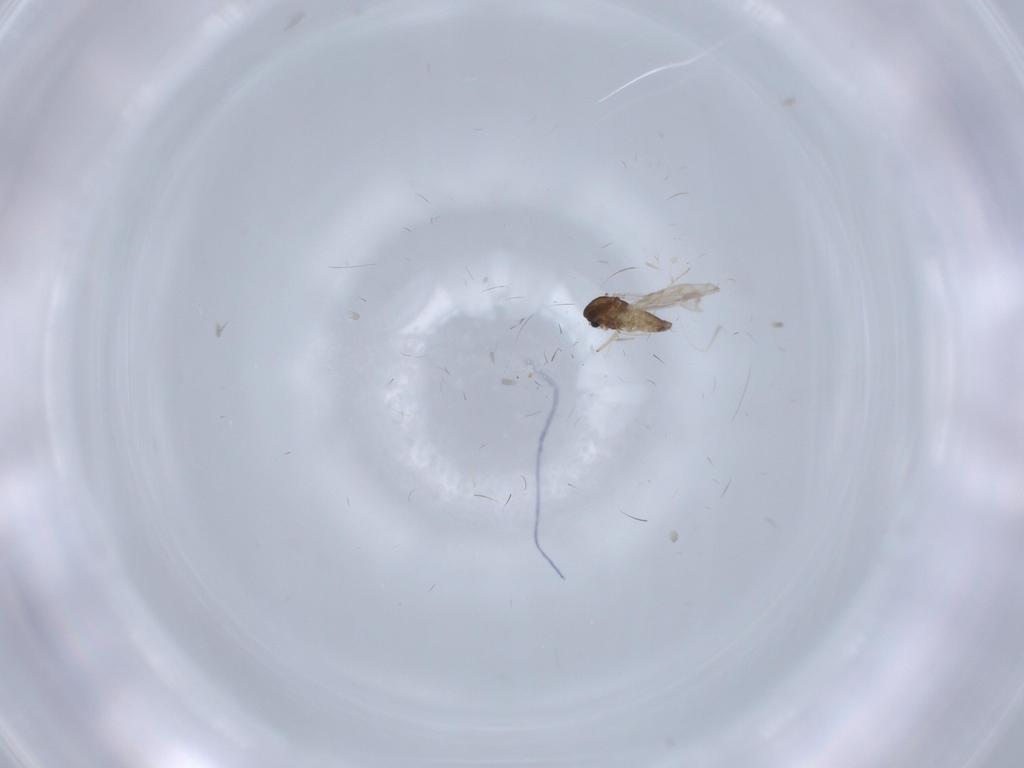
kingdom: Animalia
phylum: Arthropoda
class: Insecta
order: Diptera
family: Chironomidae
